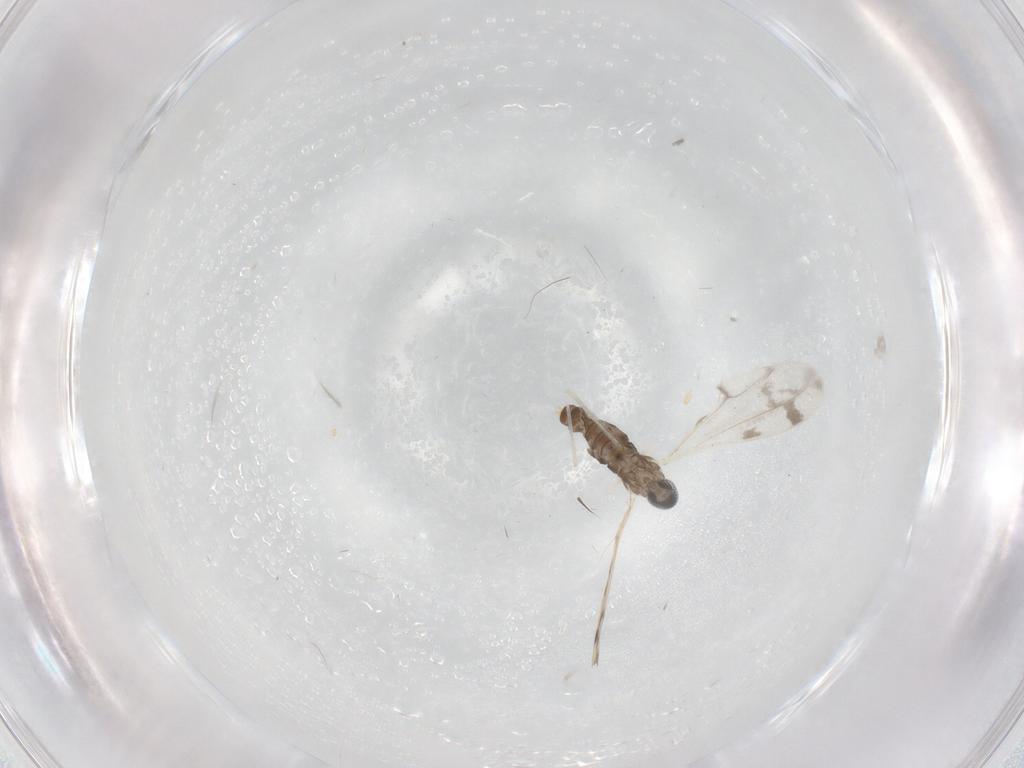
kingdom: Animalia
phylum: Arthropoda
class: Insecta
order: Diptera
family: Cecidomyiidae
